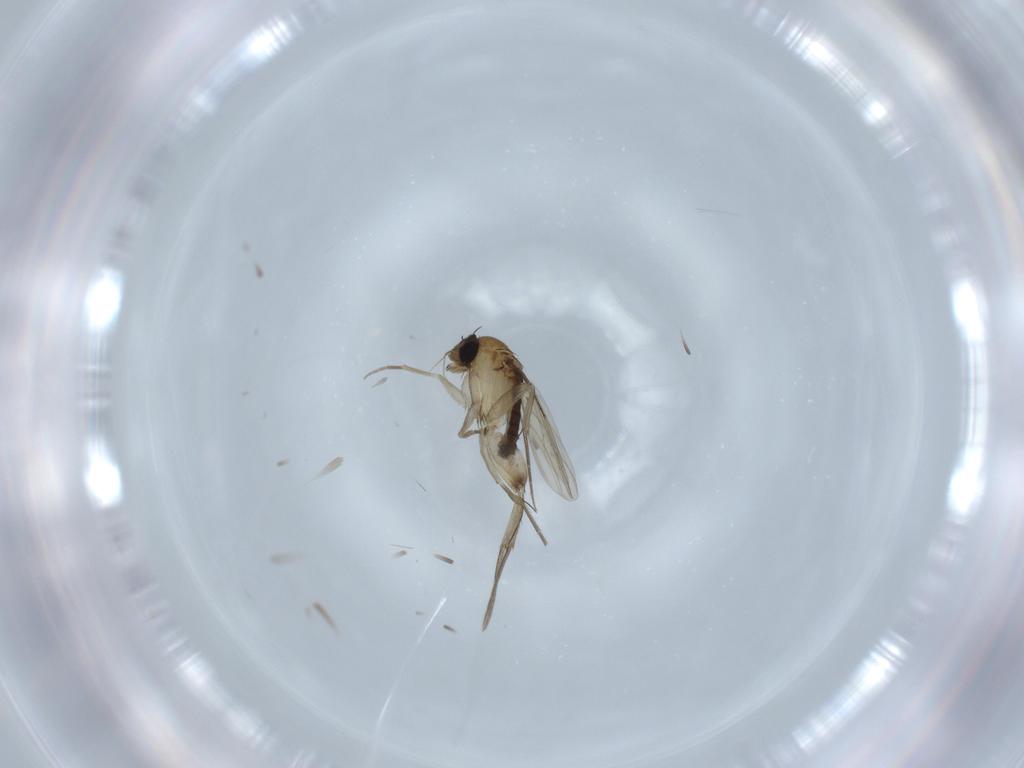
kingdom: Animalia
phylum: Arthropoda
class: Insecta
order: Diptera
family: Phoridae
